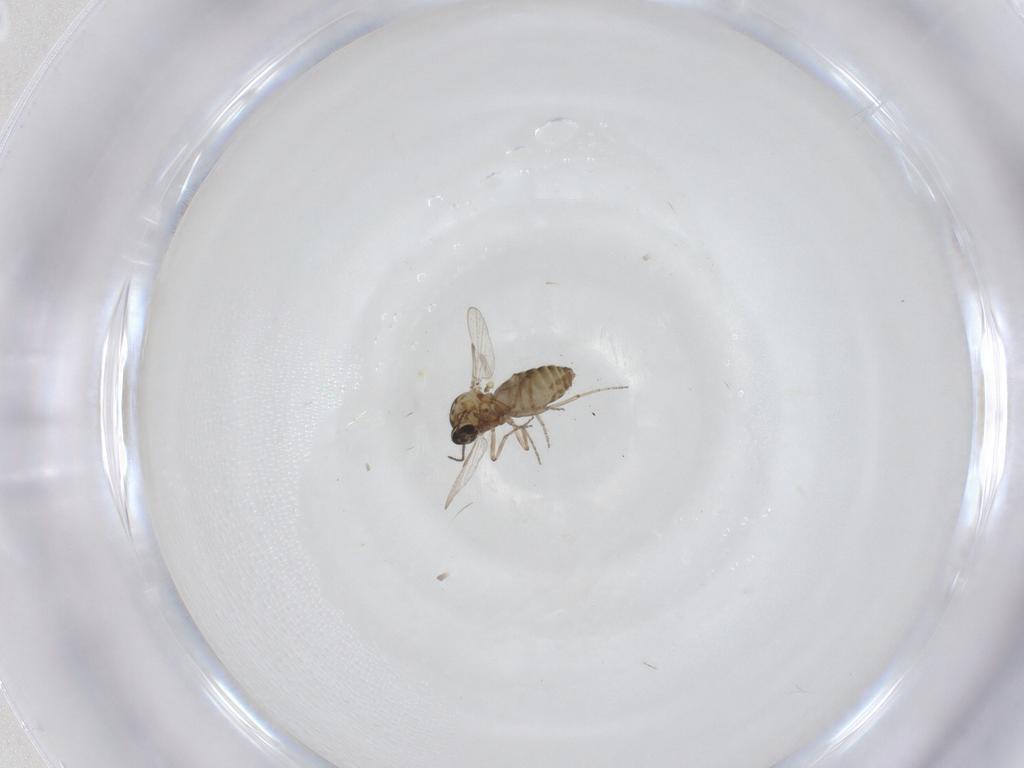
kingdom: Animalia
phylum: Arthropoda
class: Insecta
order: Diptera
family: Ceratopogonidae
